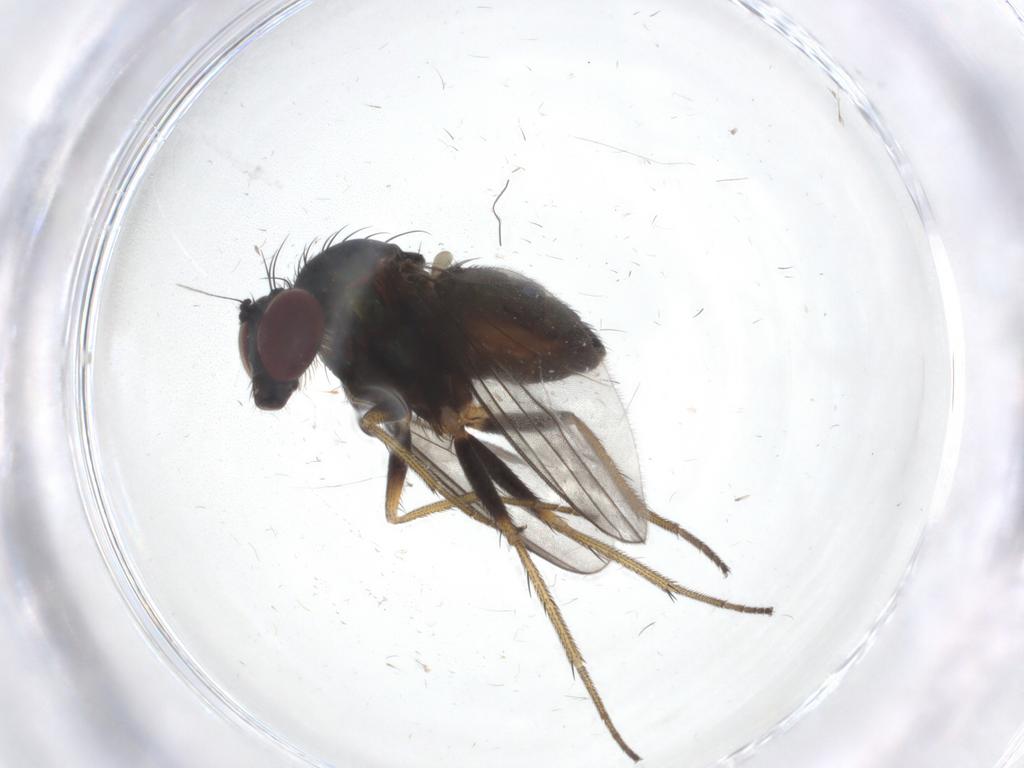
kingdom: Animalia
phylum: Arthropoda
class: Insecta
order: Diptera
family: Dolichopodidae
